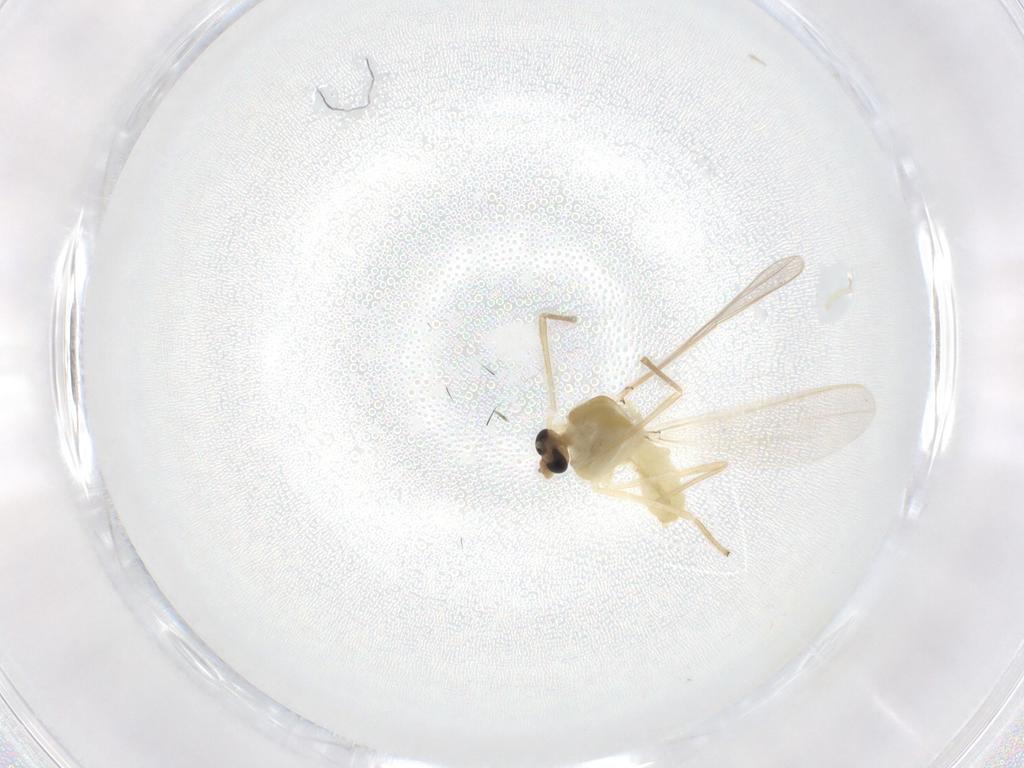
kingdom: Animalia
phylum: Arthropoda
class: Insecta
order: Diptera
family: Chironomidae
